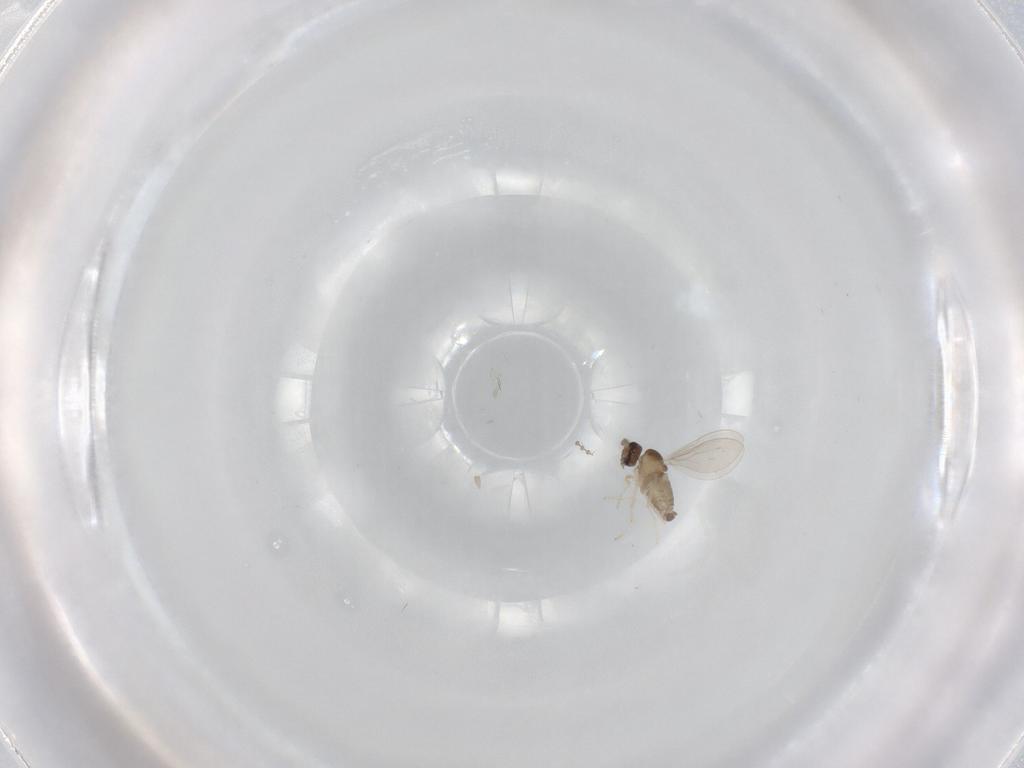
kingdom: Animalia
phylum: Arthropoda
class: Insecta
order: Diptera
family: Cecidomyiidae
